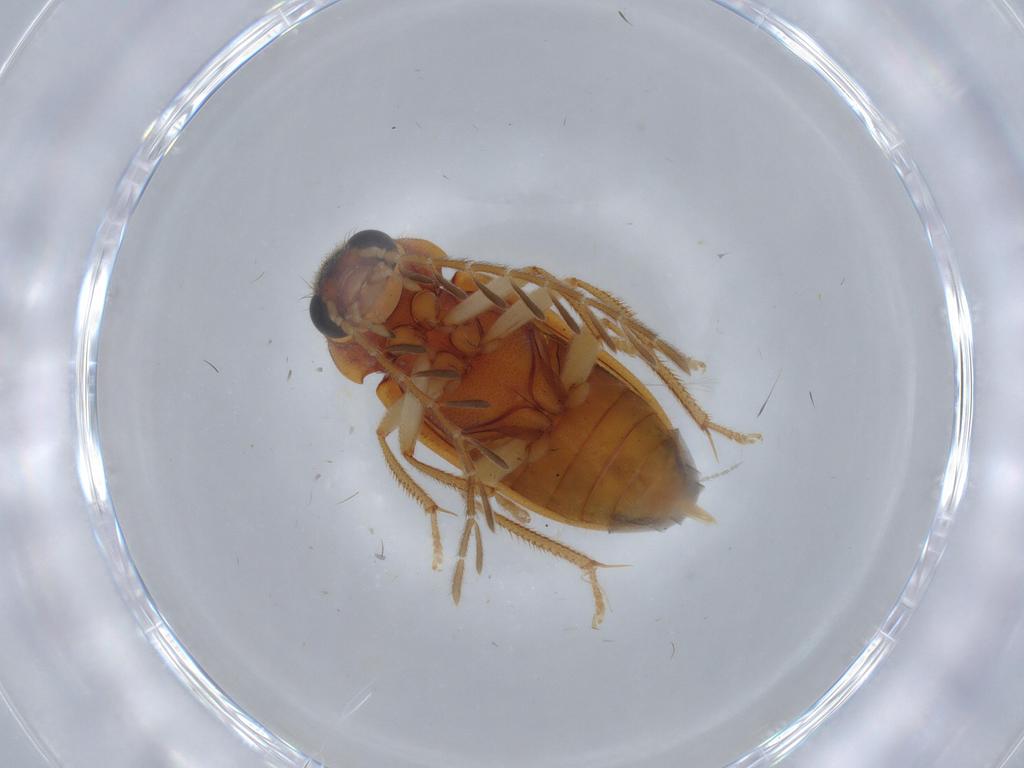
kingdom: Animalia
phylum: Arthropoda
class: Insecta
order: Coleoptera
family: Ptilodactylidae
